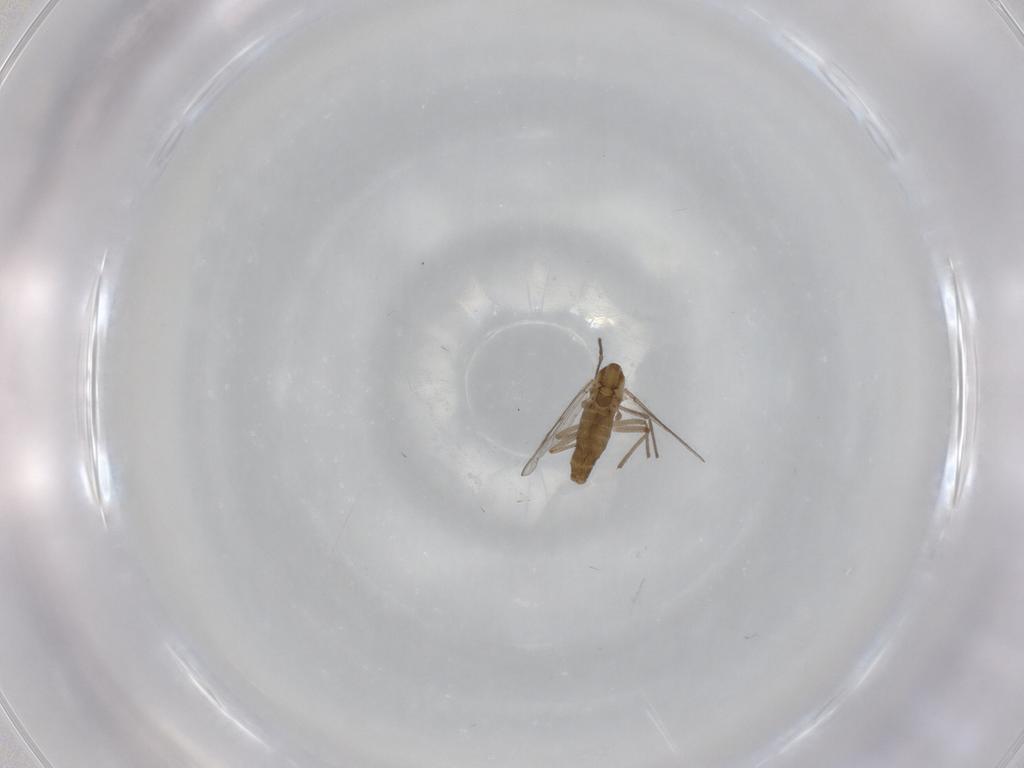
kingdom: Animalia
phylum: Arthropoda
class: Insecta
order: Diptera
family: Chironomidae
